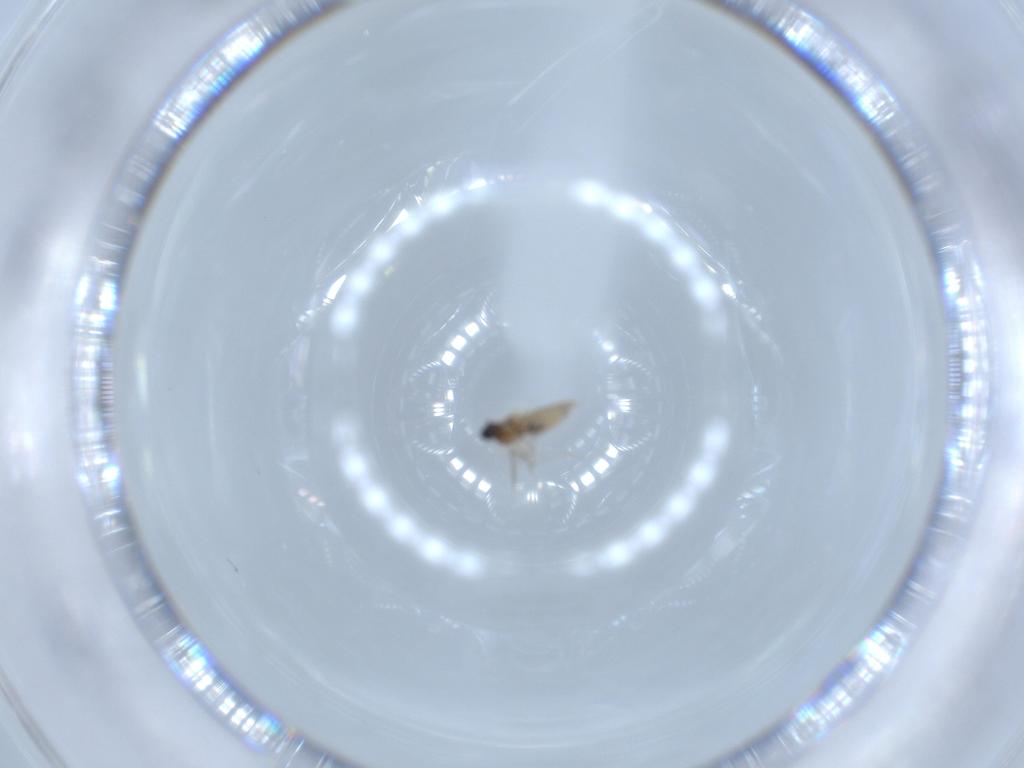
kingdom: Animalia
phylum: Arthropoda
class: Insecta
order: Diptera
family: Cecidomyiidae
